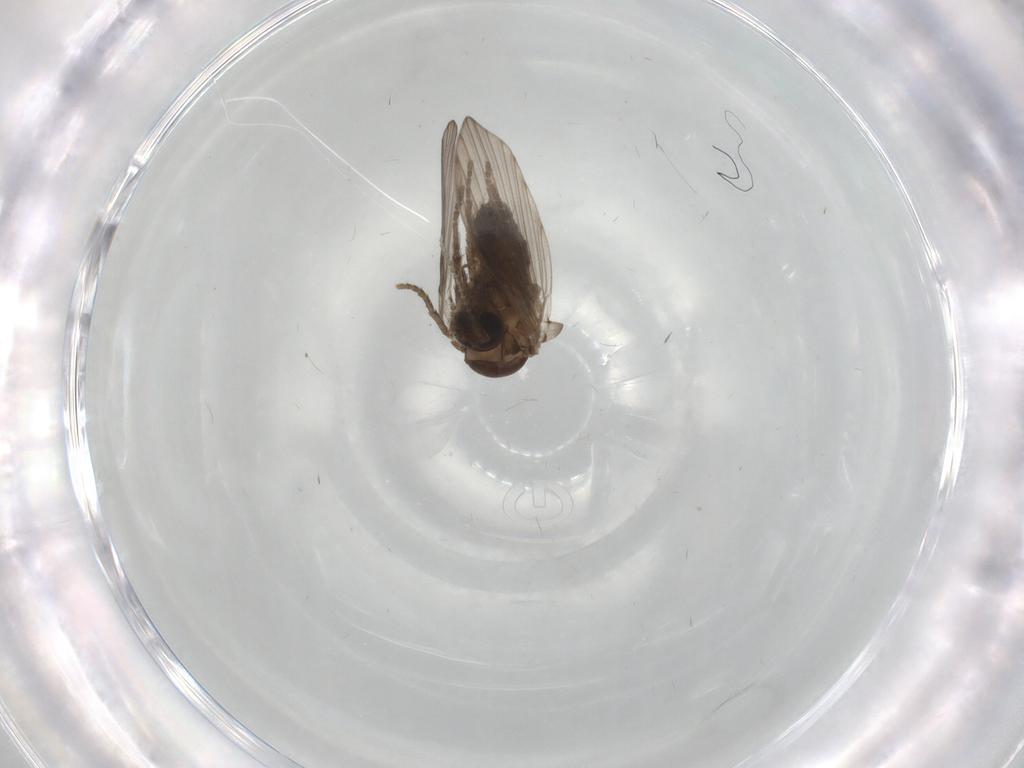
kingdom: Animalia
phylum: Arthropoda
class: Insecta
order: Diptera
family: Psychodidae
